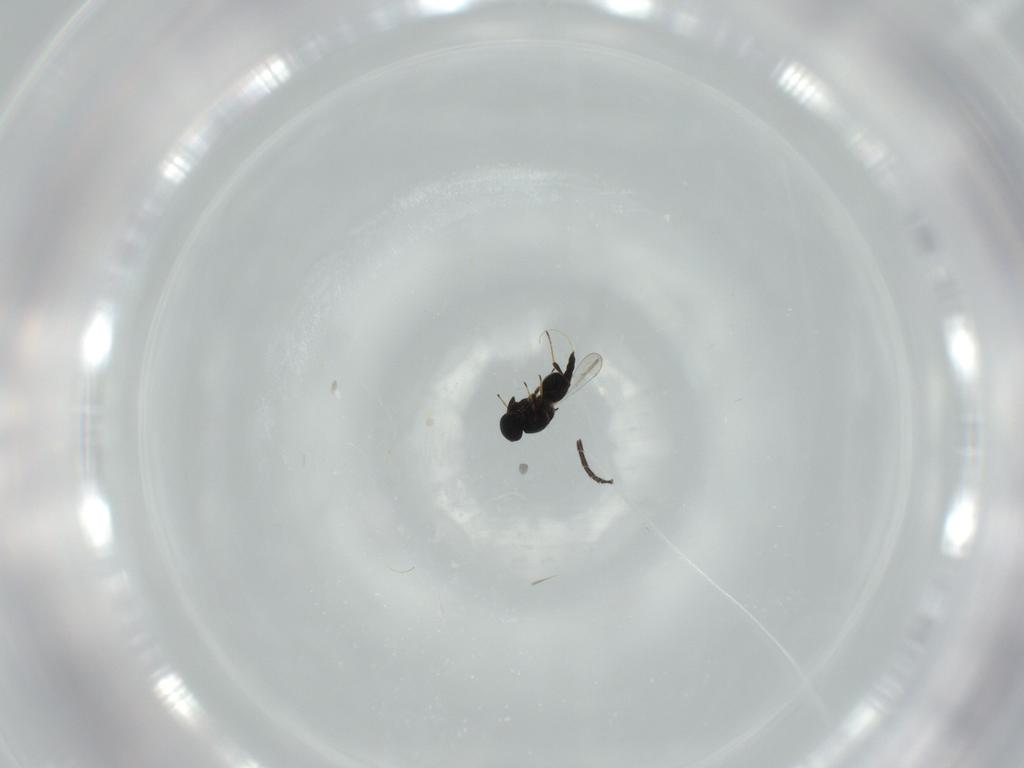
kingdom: Animalia
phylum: Arthropoda
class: Insecta
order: Hymenoptera
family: Platygastridae
